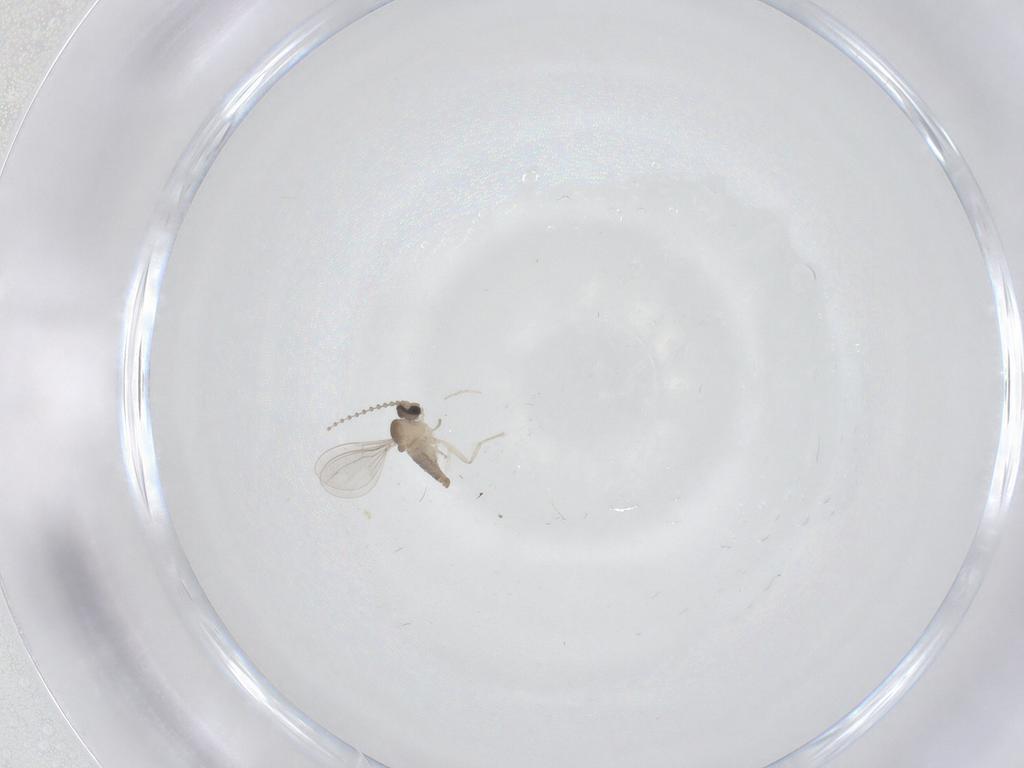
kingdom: Animalia
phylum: Arthropoda
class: Insecta
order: Diptera
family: Cecidomyiidae
